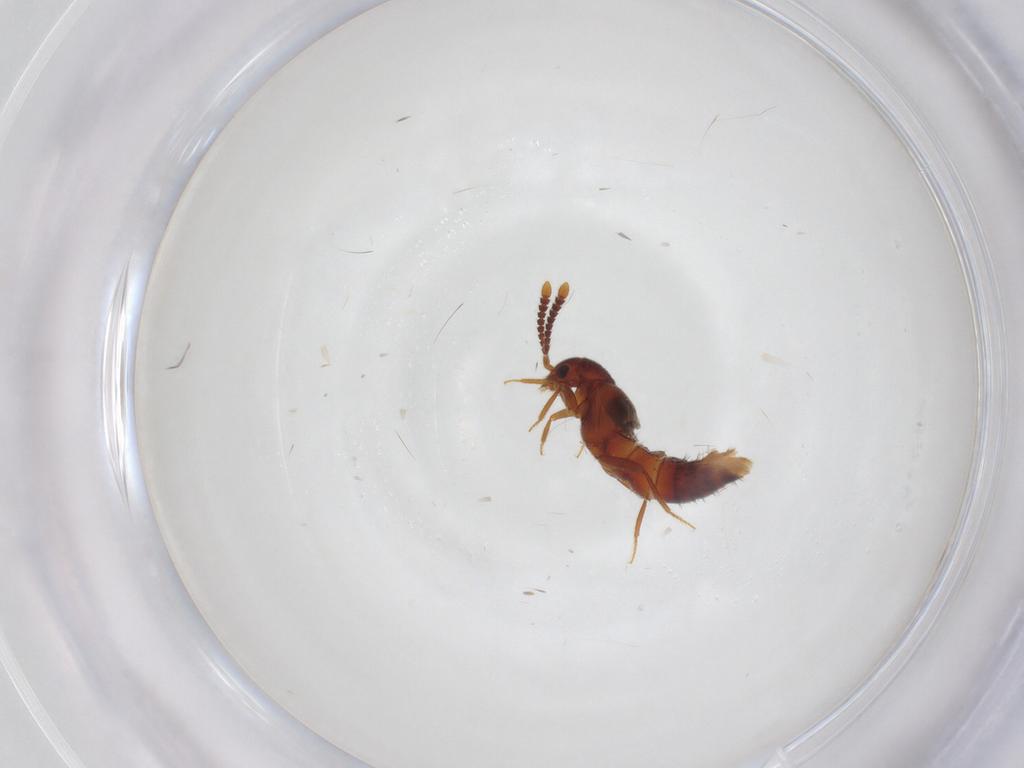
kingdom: Animalia
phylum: Arthropoda
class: Insecta
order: Coleoptera
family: Staphylinidae
